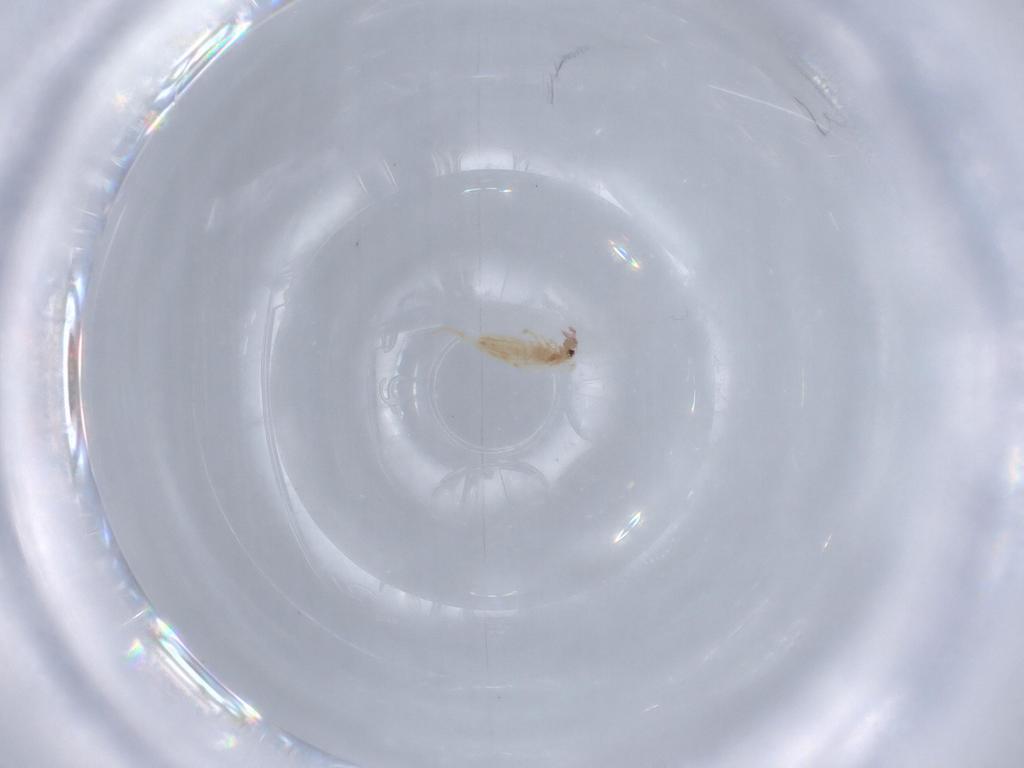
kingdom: Animalia
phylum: Arthropoda
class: Collembola
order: Entomobryomorpha
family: Entomobryidae
